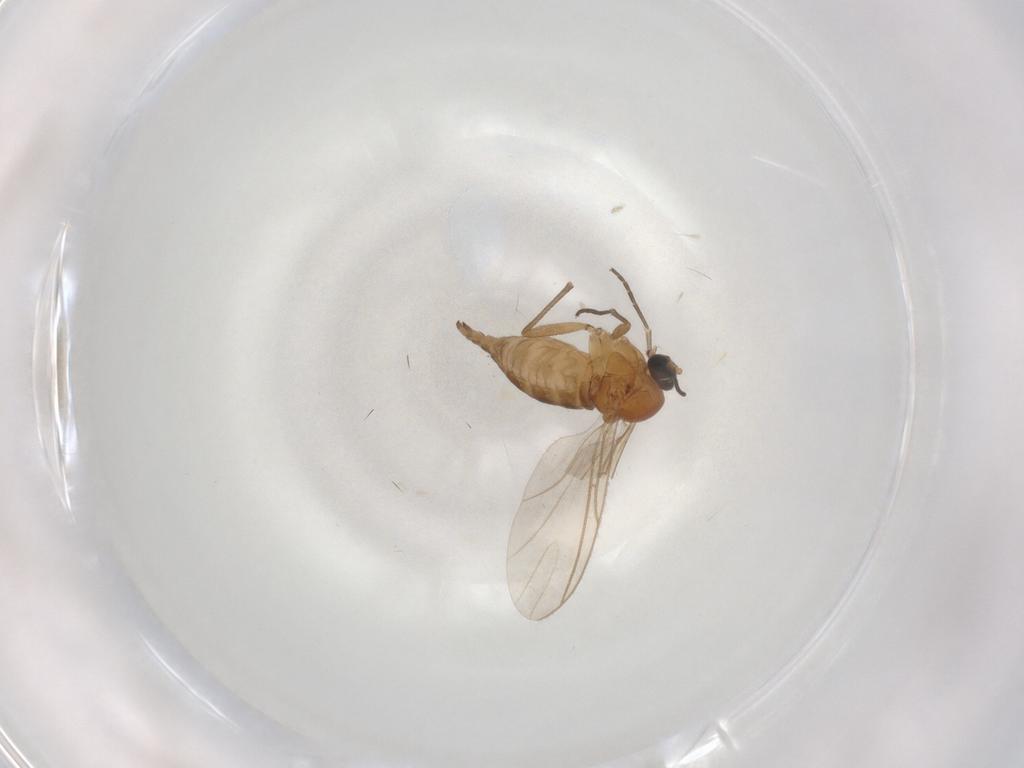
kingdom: Animalia
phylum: Arthropoda
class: Insecta
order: Diptera
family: Sciaridae
